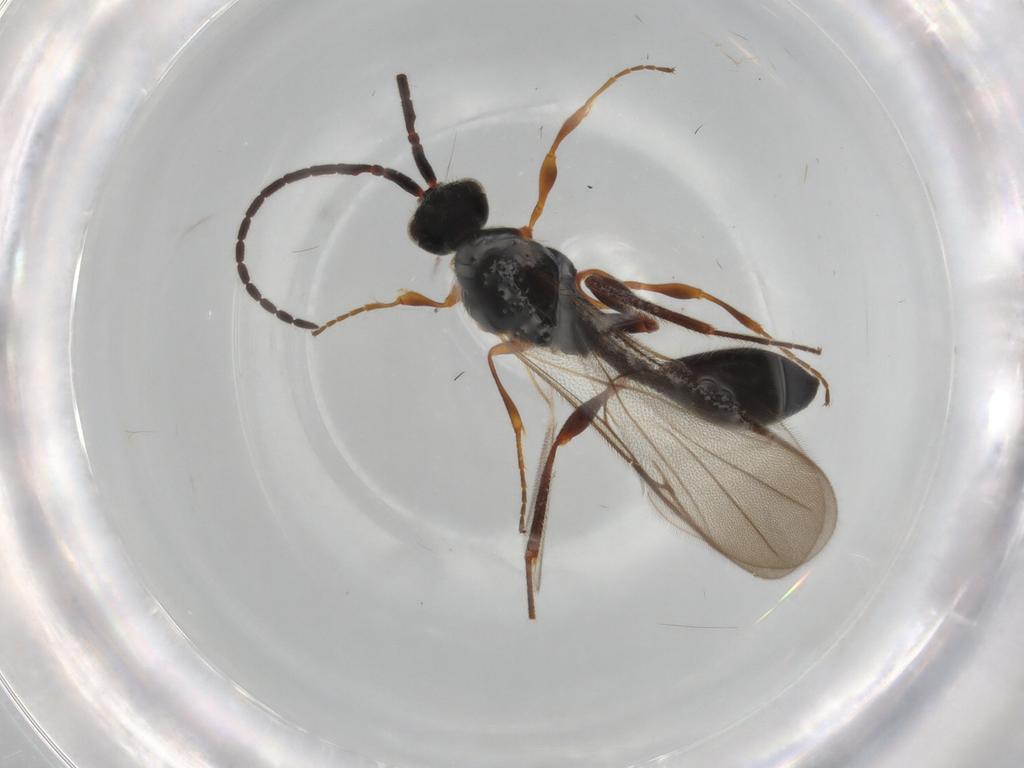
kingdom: Animalia
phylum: Arthropoda
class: Insecta
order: Hymenoptera
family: Diapriidae
